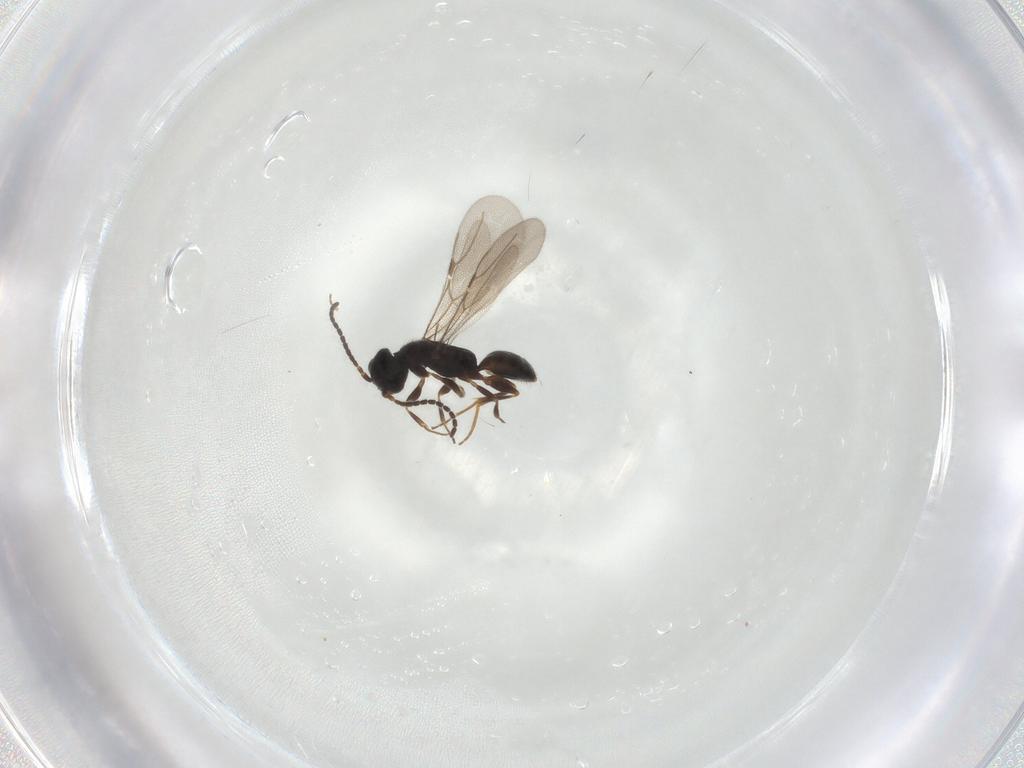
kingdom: Animalia
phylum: Arthropoda
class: Insecta
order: Hymenoptera
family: Bethylidae
